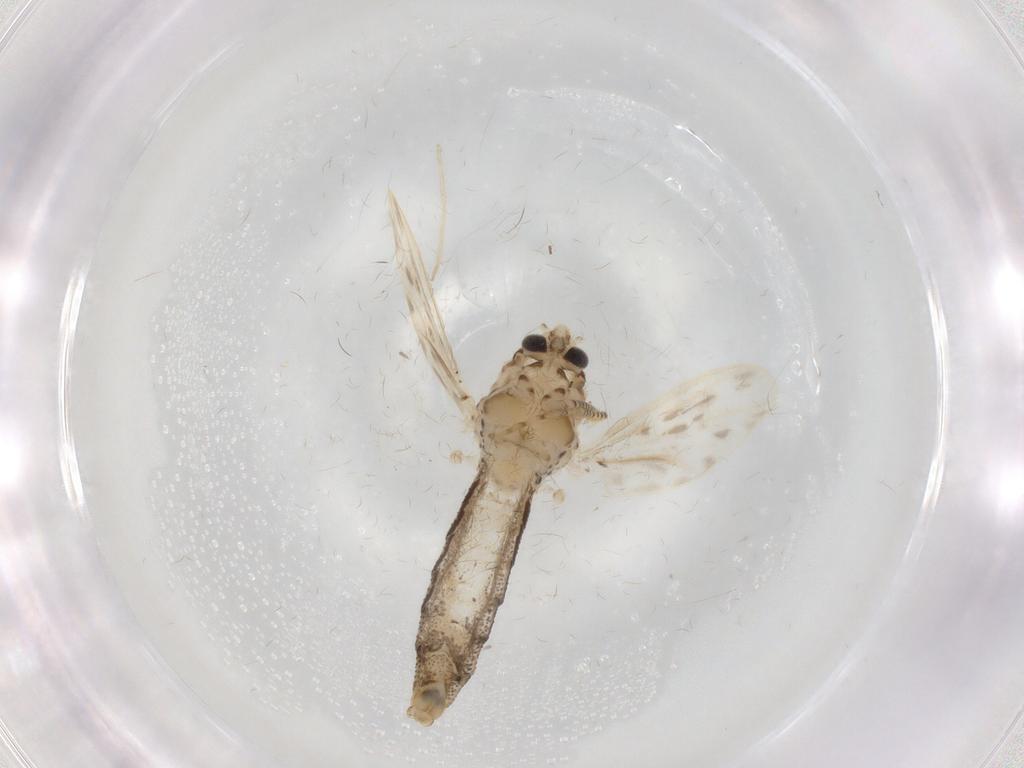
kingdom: Animalia
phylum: Arthropoda
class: Insecta
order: Diptera
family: Chaoboridae
